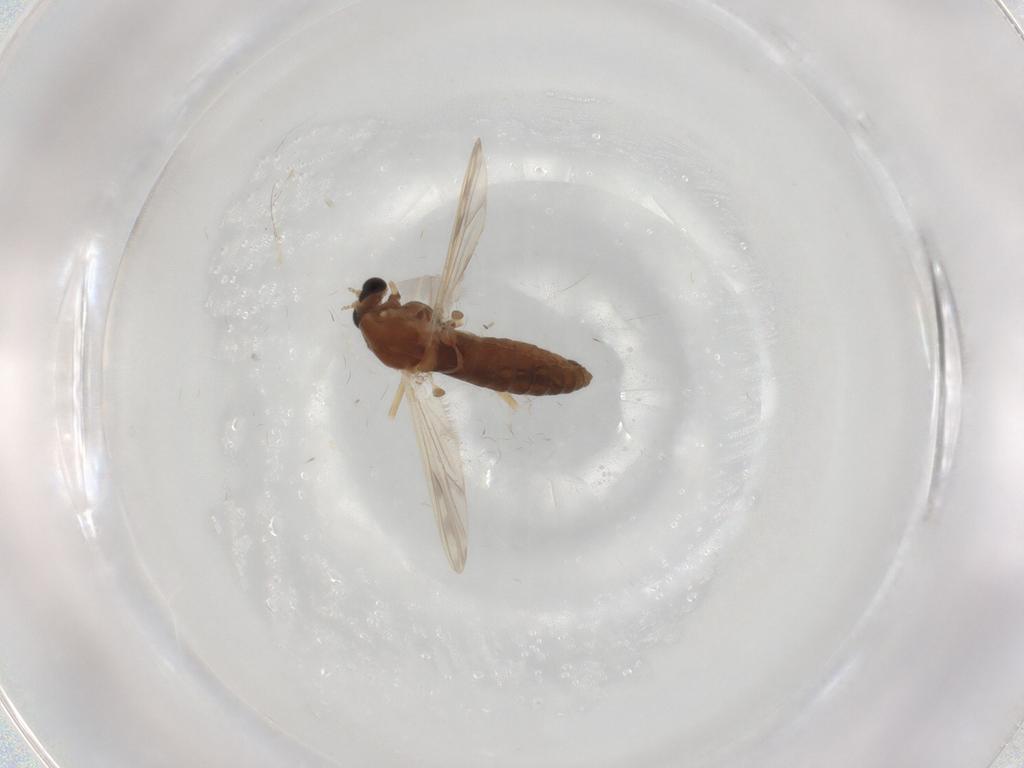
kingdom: Animalia
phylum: Arthropoda
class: Insecta
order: Diptera
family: Chironomidae
